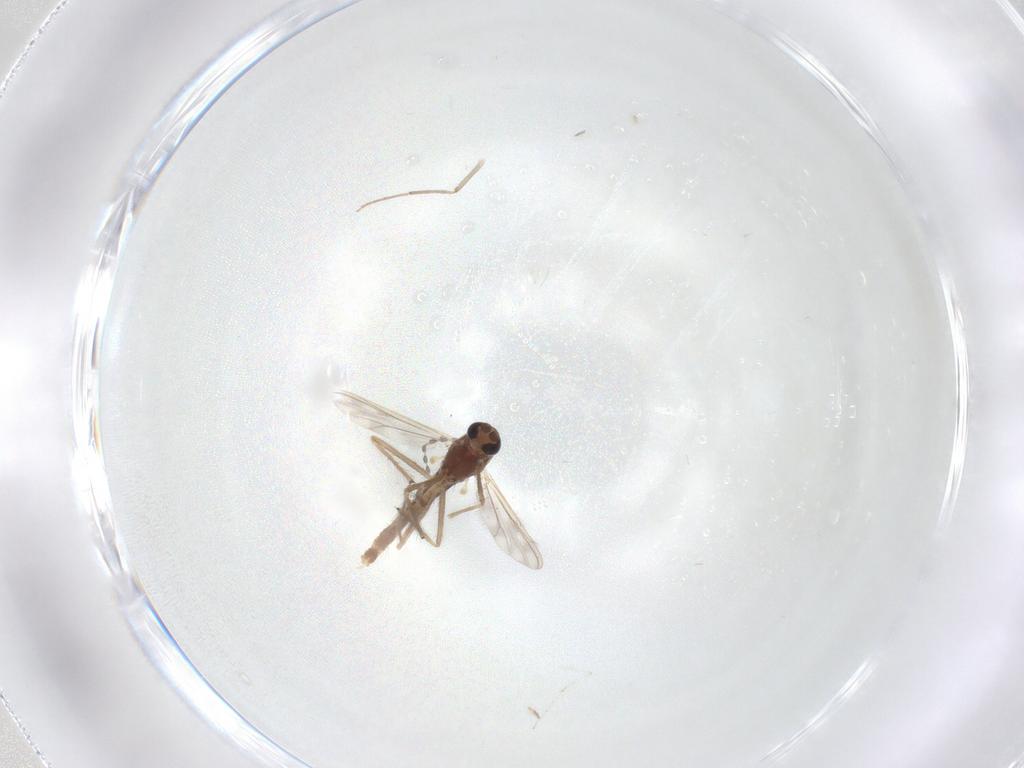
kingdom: Animalia
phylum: Arthropoda
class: Insecta
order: Diptera
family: Chironomidae
